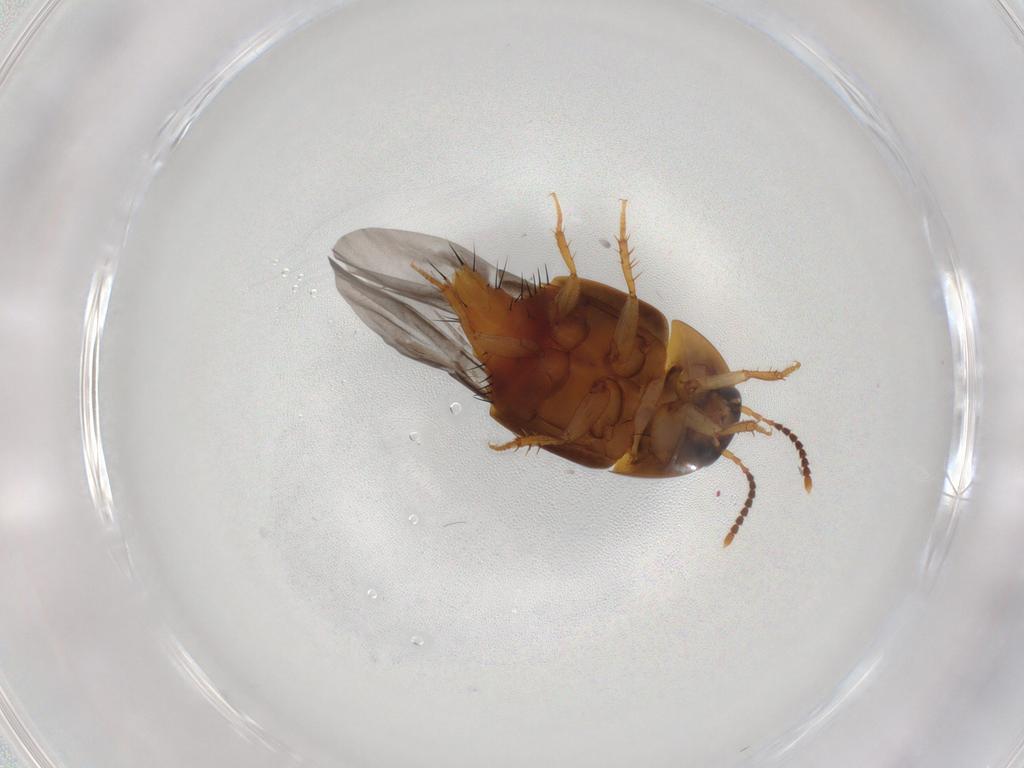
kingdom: Animalia
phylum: Arthropoda
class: Insecta
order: Coleoptera
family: Staphylinidae
